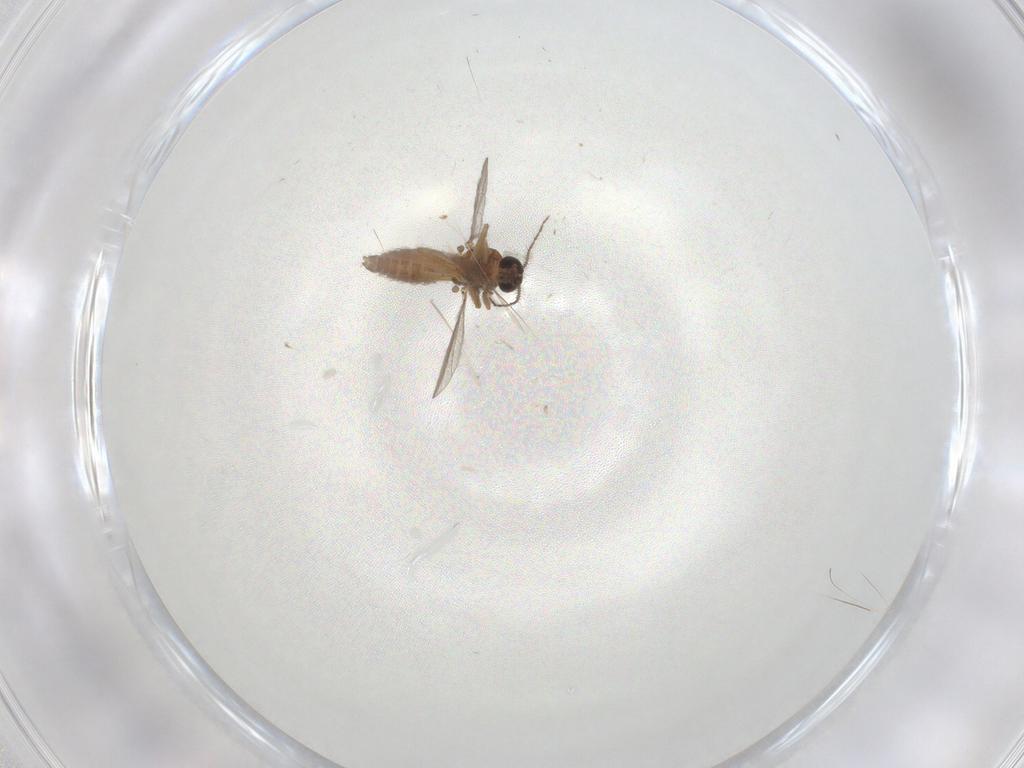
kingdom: Animalia
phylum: Arthropoda
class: Insecta
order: Diptera
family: Ceratopogonidae
